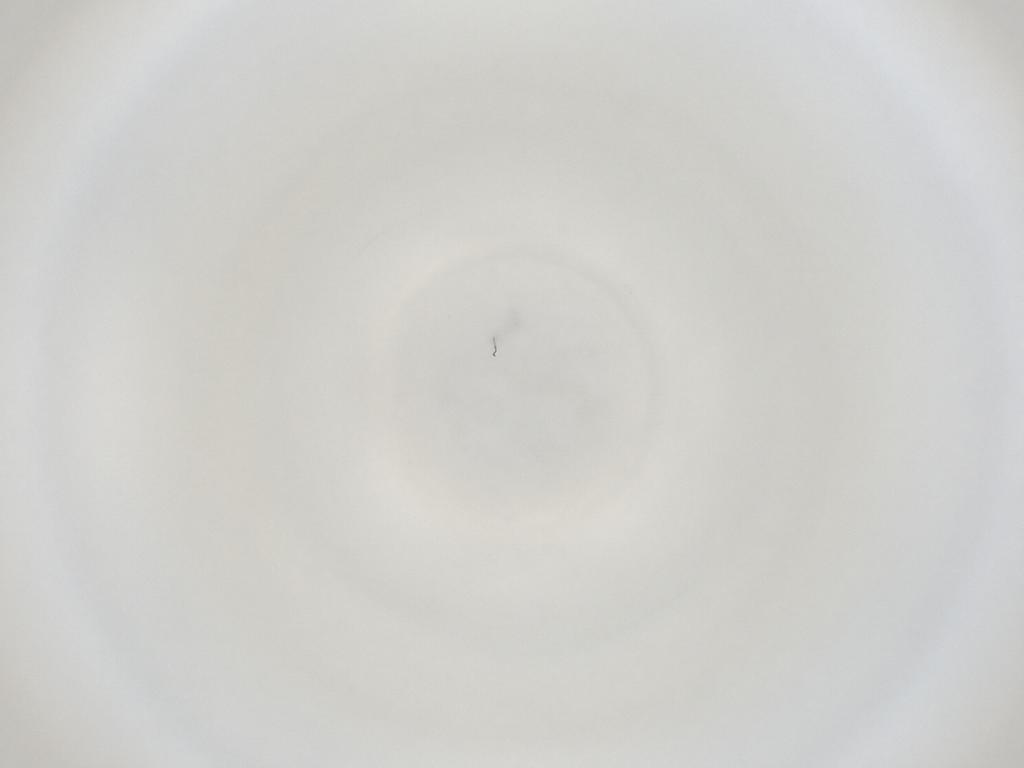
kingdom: Animalia
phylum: Arthropoda
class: Insecta
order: Diptera
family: Cecidomyiidae
